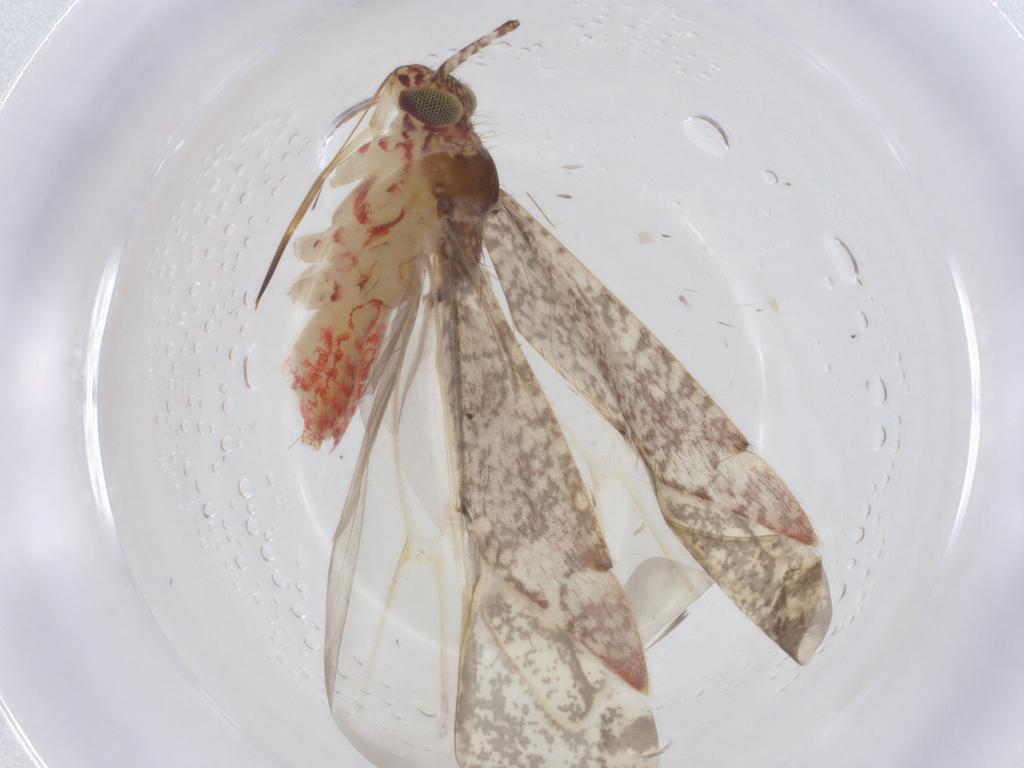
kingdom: Animalia
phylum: Arthropoda
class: Insecta
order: Hemiptera
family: Miridae
